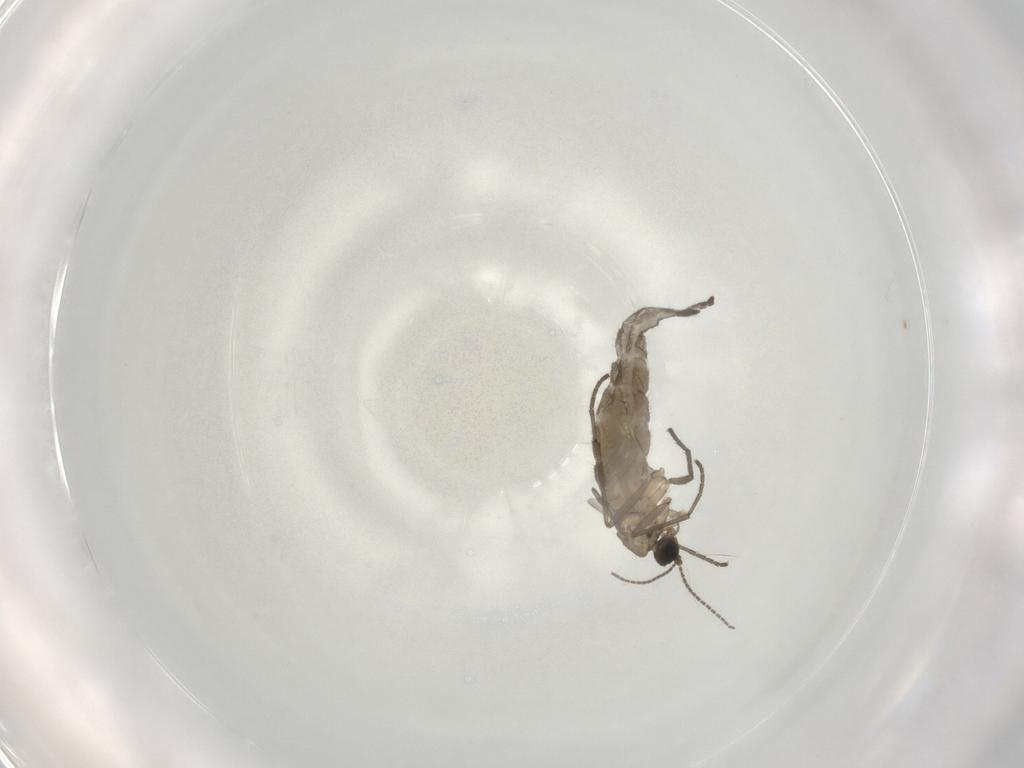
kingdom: Animalia
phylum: Arthropoda
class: Insecta
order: Diptera
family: Sciaridae
